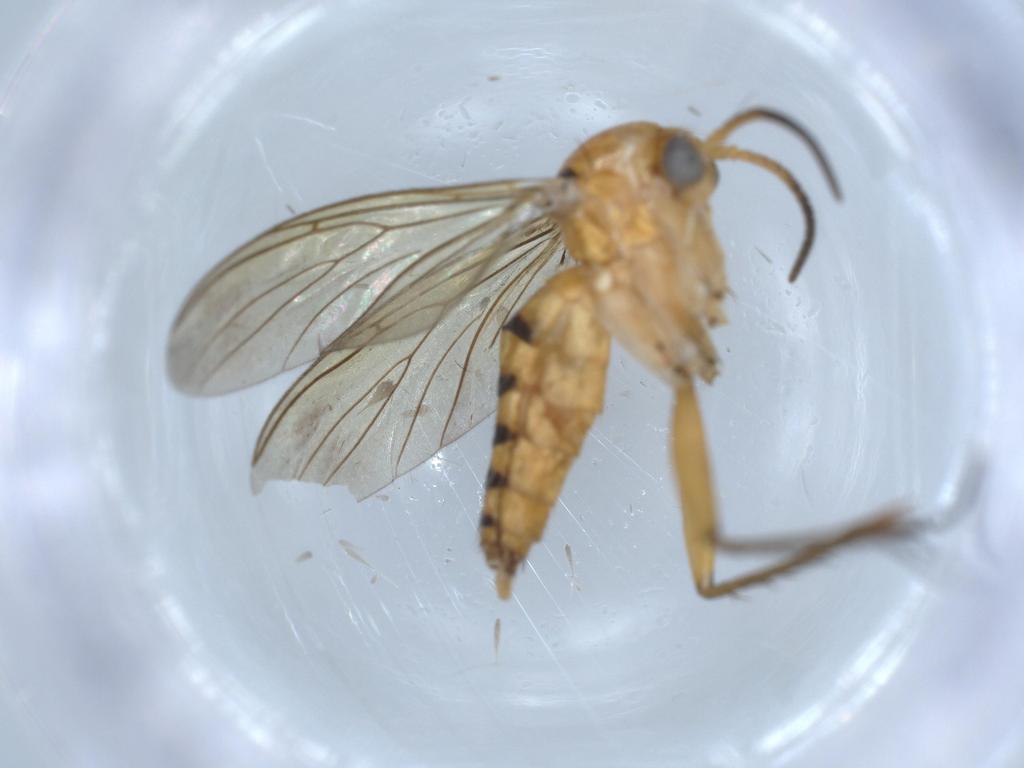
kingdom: Animalia
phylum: Arthropoda
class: Insecta
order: Diptera
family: Mycetophilidae
